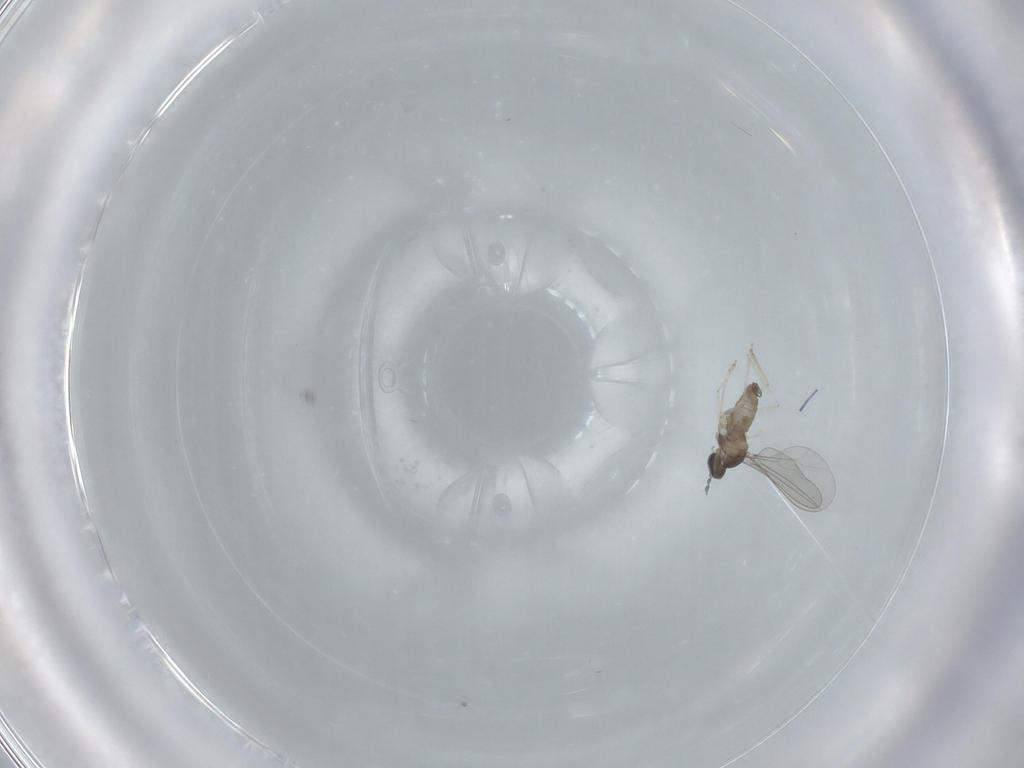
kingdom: Animalia
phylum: Arthropoda
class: Insecta
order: Diptera
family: Cecidomyiidae
